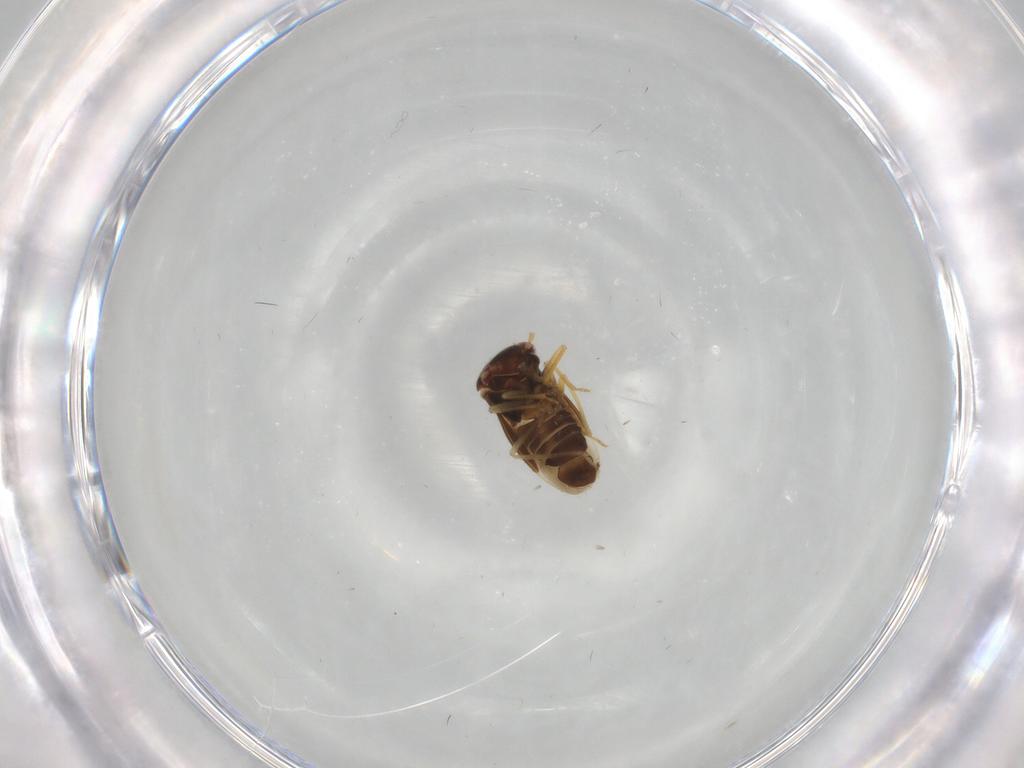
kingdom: Animalia
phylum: Arthropoda
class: Insecta
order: Hemiptera
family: Schizopteridae
